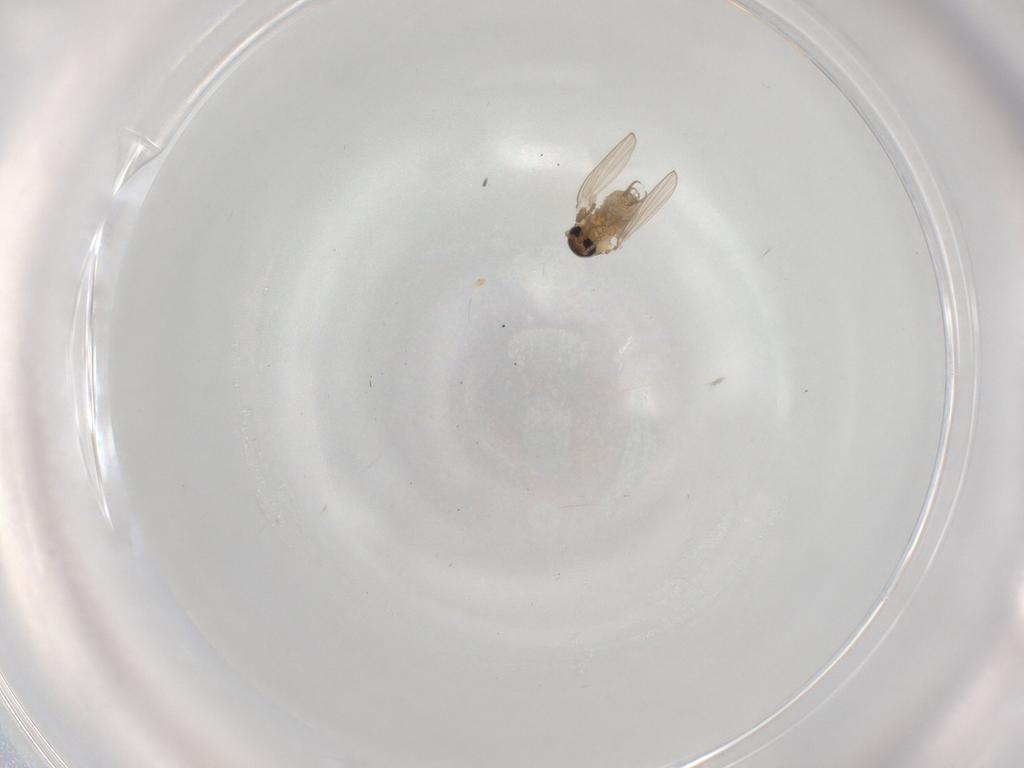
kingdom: Animalia
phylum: Arthropoda
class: Insecta
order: Diptera
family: Psychodidae
